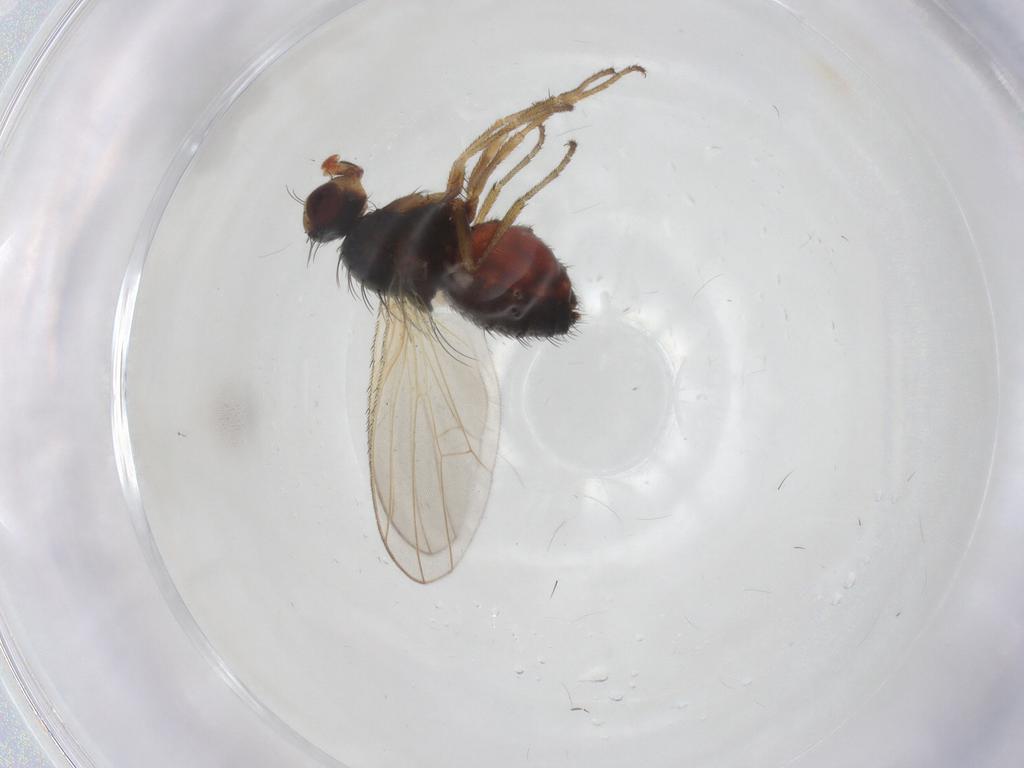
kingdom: Animalia
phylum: Arthropoda
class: Insecta
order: Diptera
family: Heleomyzidae
